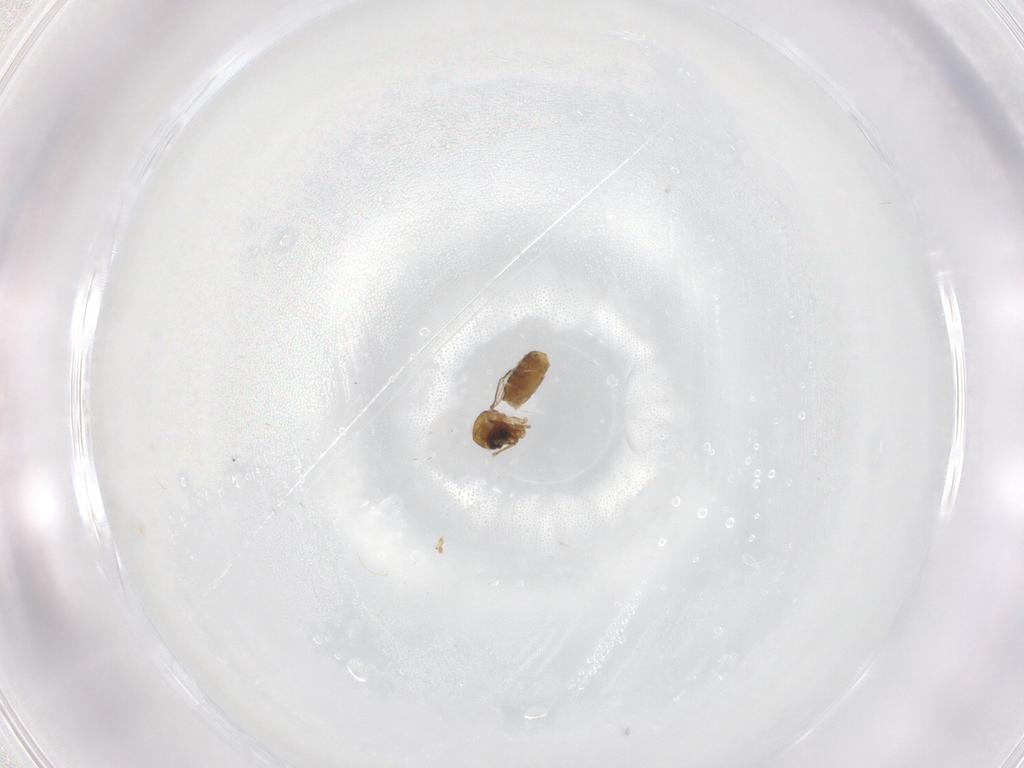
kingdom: Animalia
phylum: Arthropoda
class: Insecta
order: Diptera
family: Ceratopogonidae
